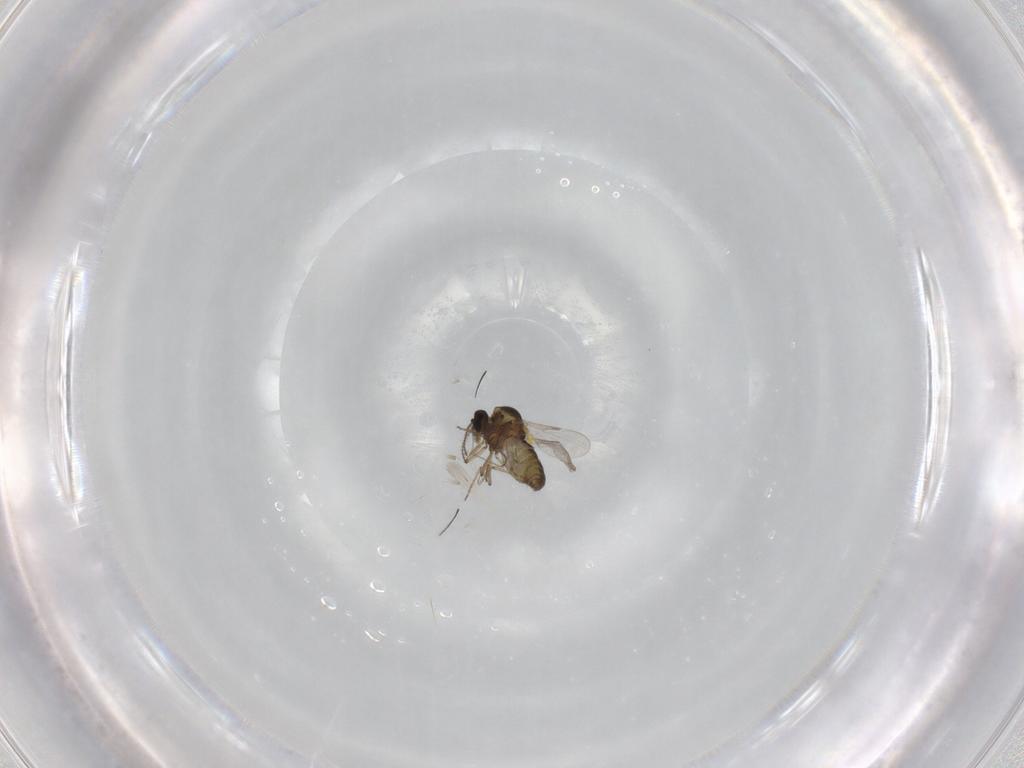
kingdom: Animalia
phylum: Arthropoda
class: Insecta
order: Diptera
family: Ceratopogonidae
